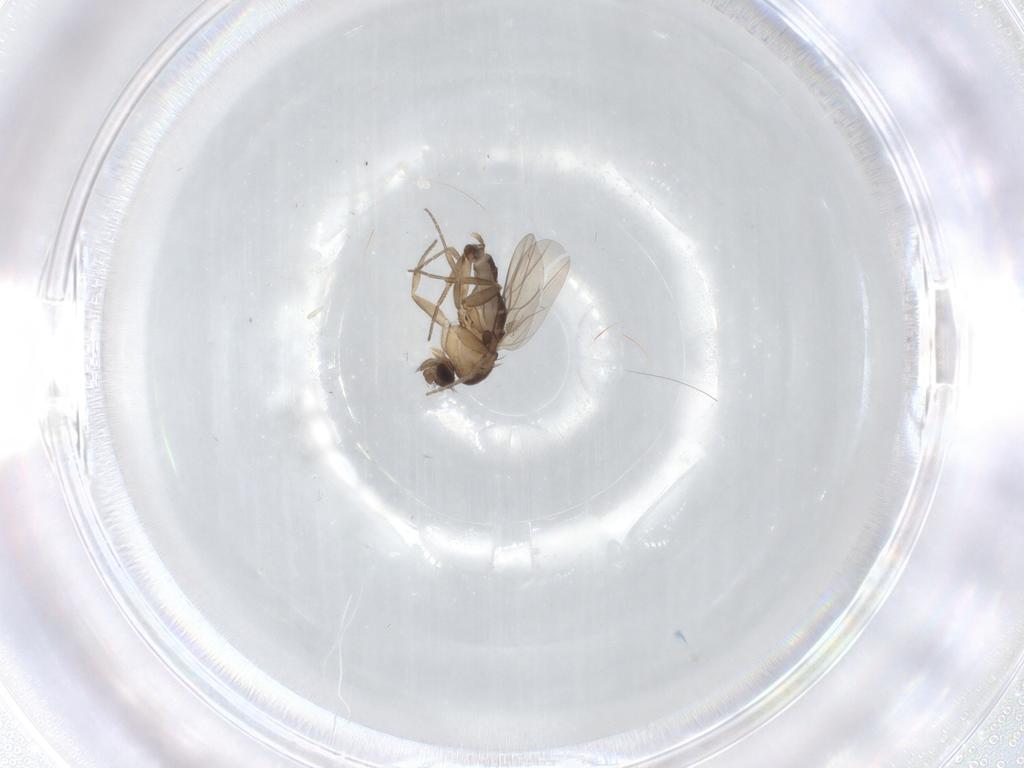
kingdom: Animalia
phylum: Arthropoda
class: Insecta
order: Diptera
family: Phoridae
